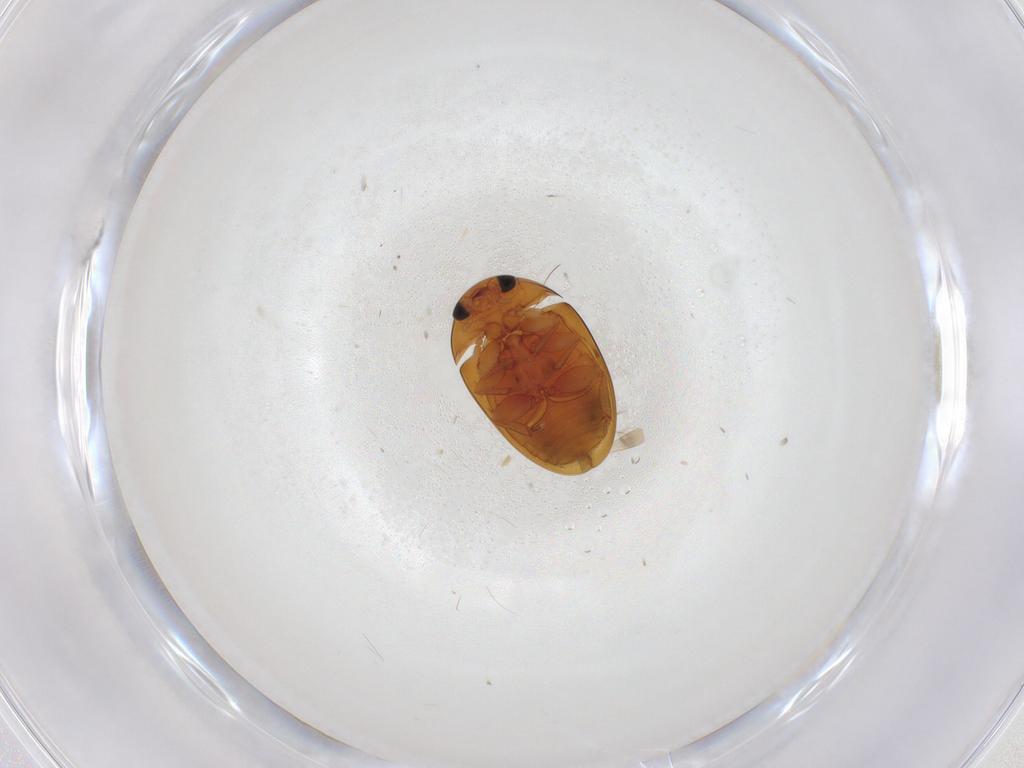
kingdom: Animalia
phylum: Arthropoda
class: Insecta
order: Coleoptera
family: Phalacridae
